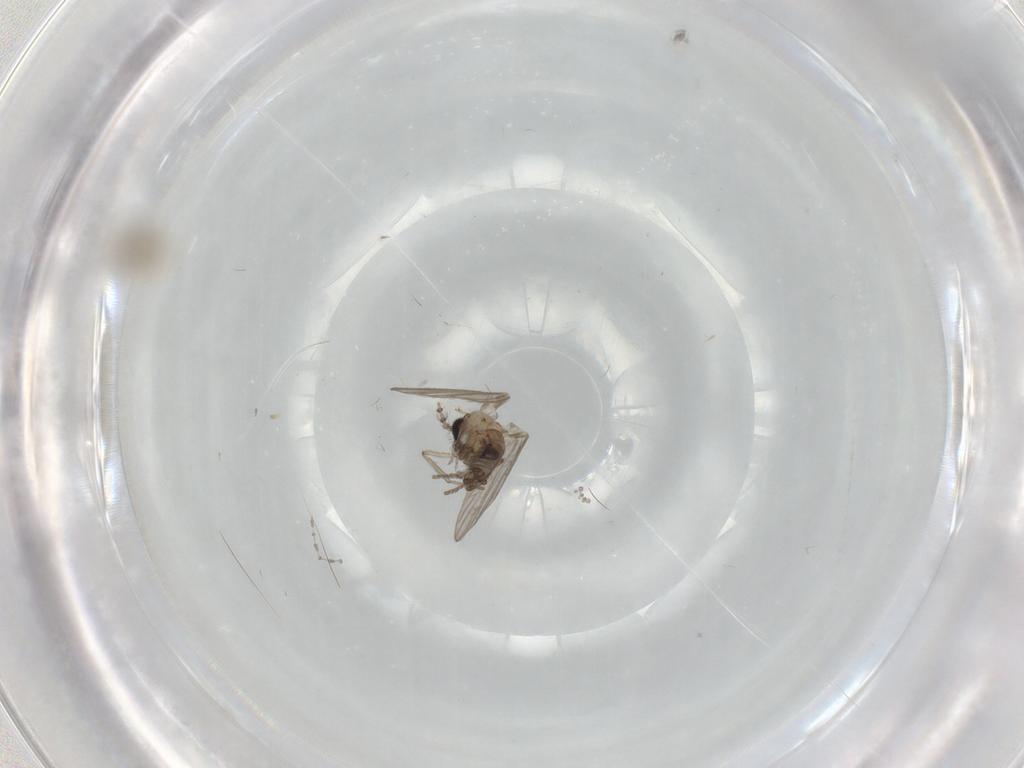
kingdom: Animalia
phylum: Arthropoda
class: Insecta
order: Diptera
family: Psychodidae
